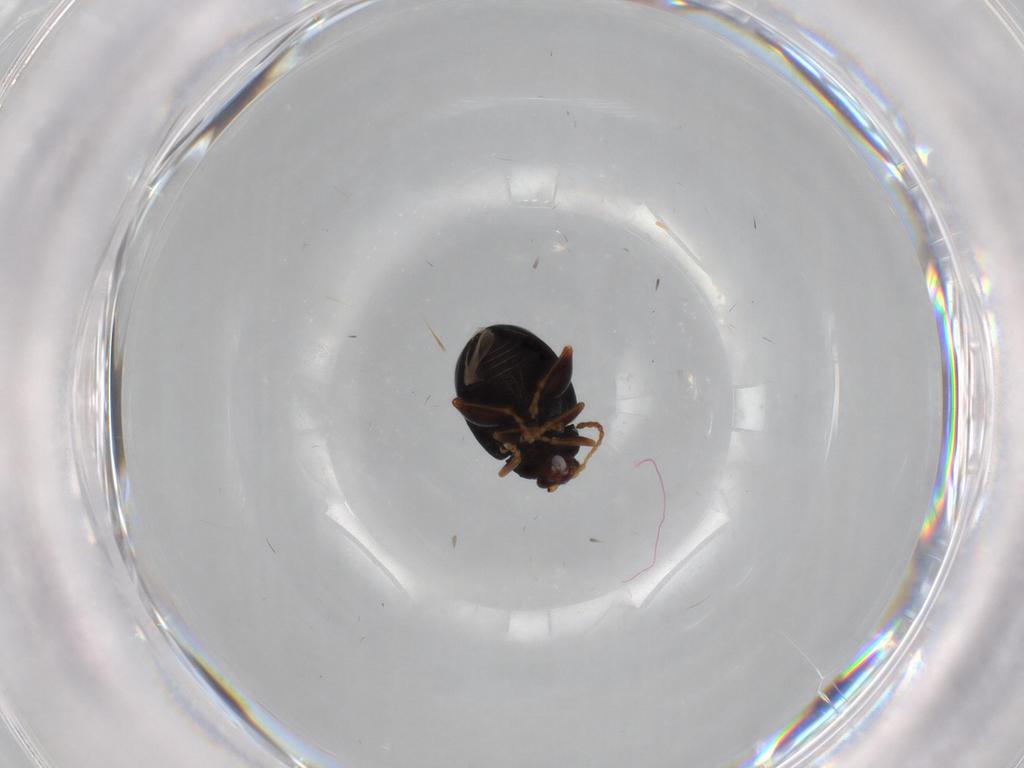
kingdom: Animalia
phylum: Arthropoda
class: Insecta
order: Coleoptera
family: Chrysomelidae
